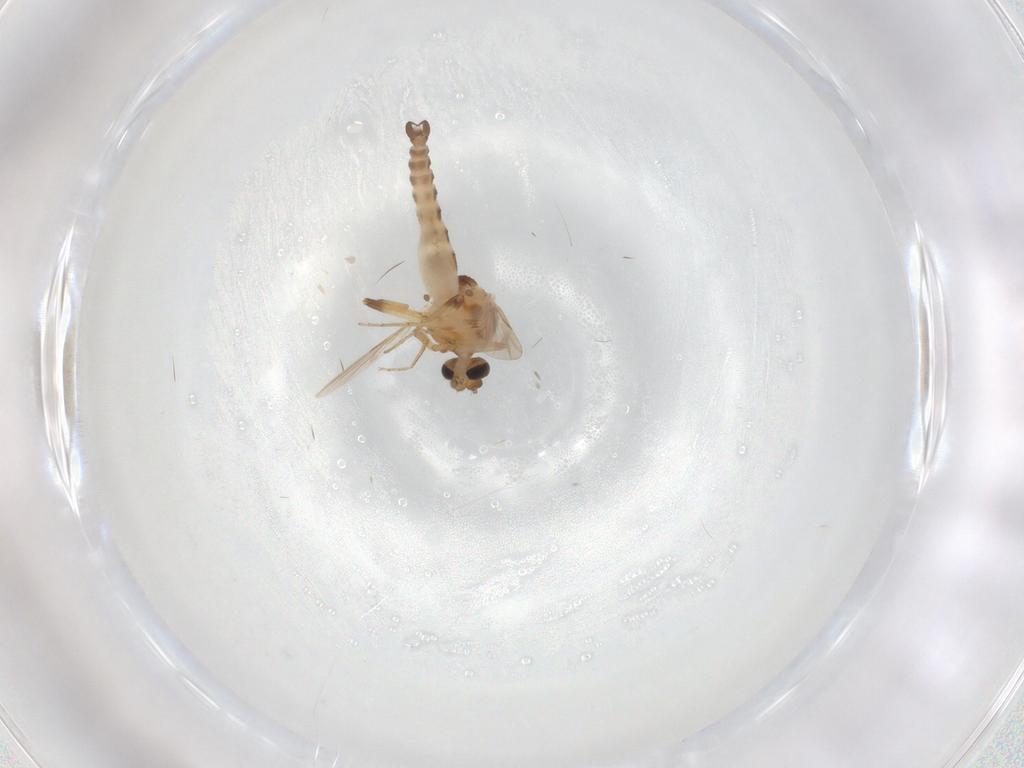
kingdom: Animalia
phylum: Arthropoda
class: Insecta
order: Diptera
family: Ceratopogonidae
